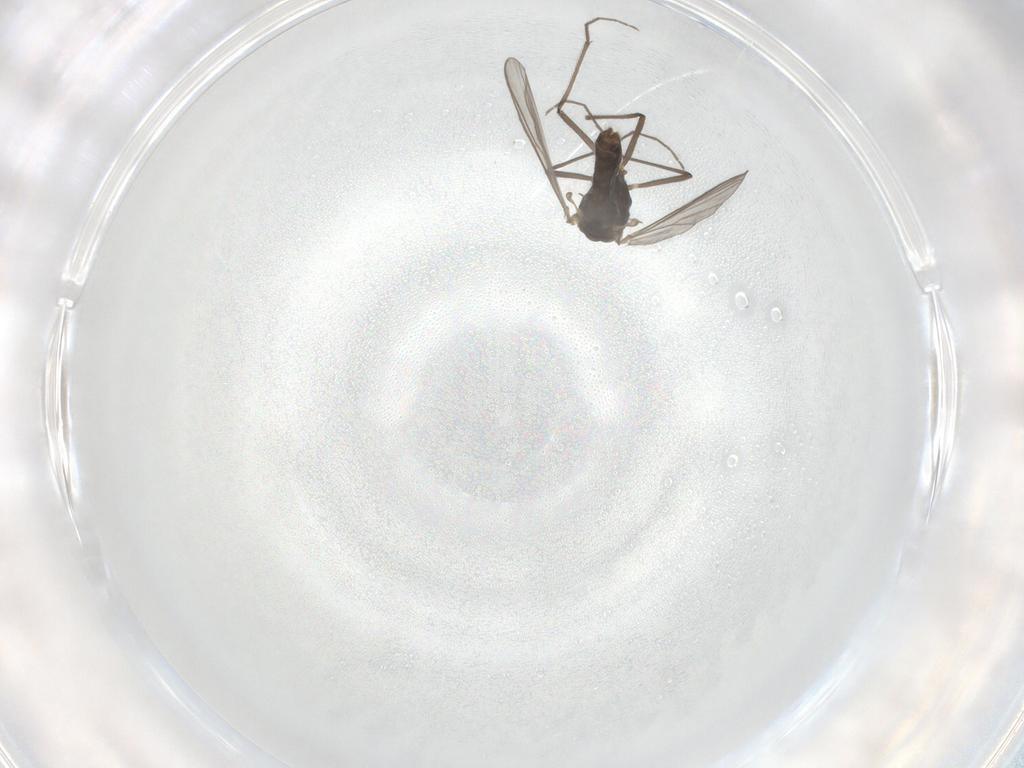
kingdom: Animalia
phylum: Arthropoda
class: Insecta
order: Diptera
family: Chironomidae
